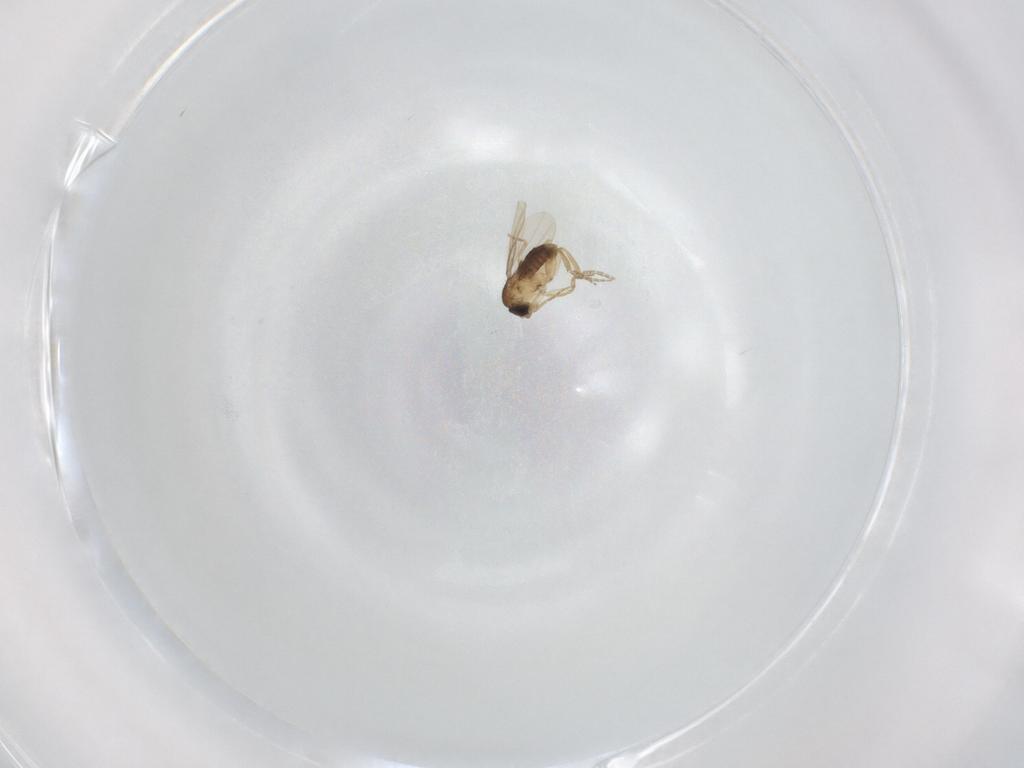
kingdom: Animalia
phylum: Arthropoda
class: Insecta
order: Diptera
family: Phoridae
